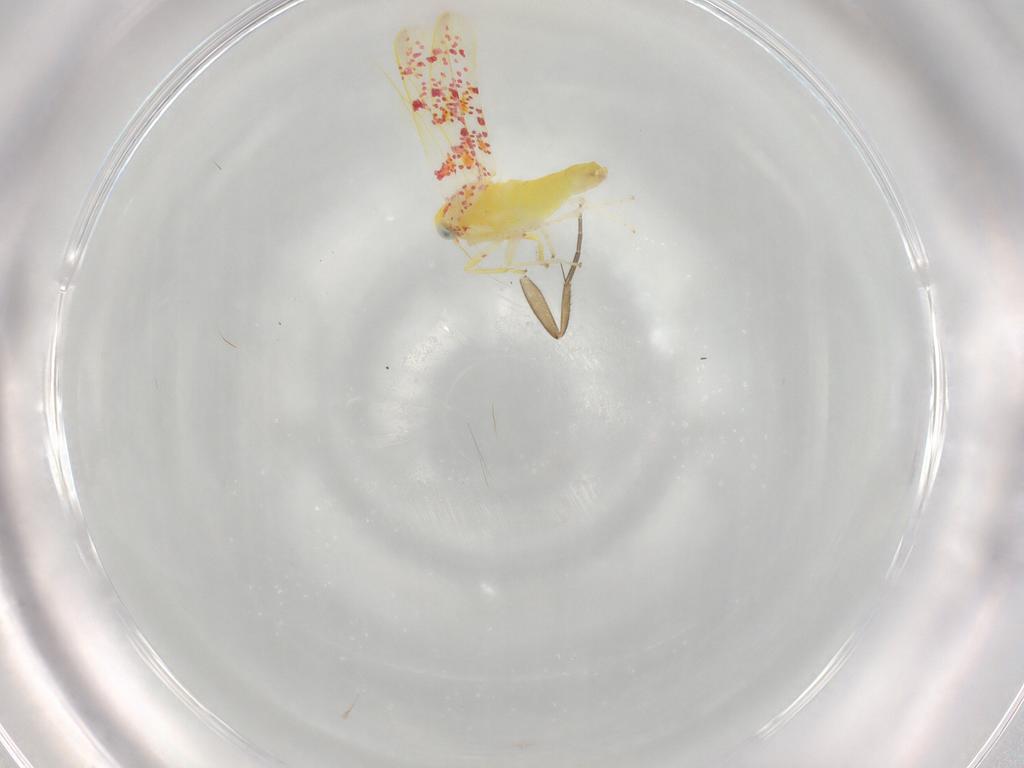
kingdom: Animalia
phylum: Arthropoda
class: Insecta
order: Hemiptera
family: Cicadellidae
